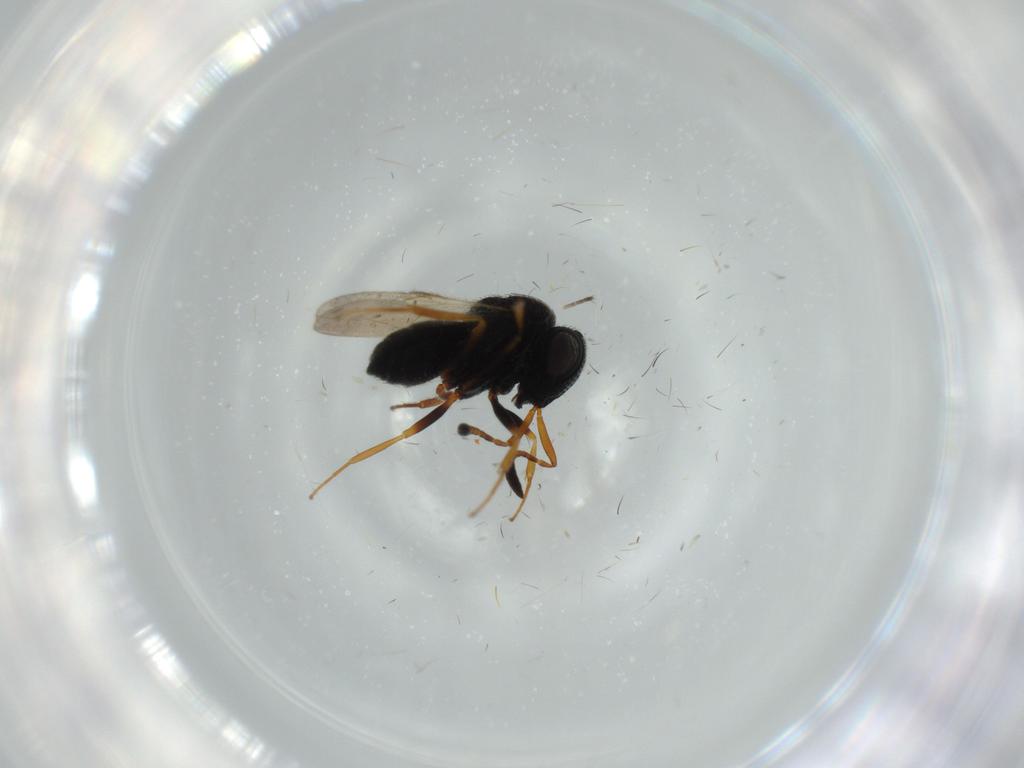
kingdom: Animalia
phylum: Arthropoda
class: Insecta
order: Hymenoptera
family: Scelionidae
